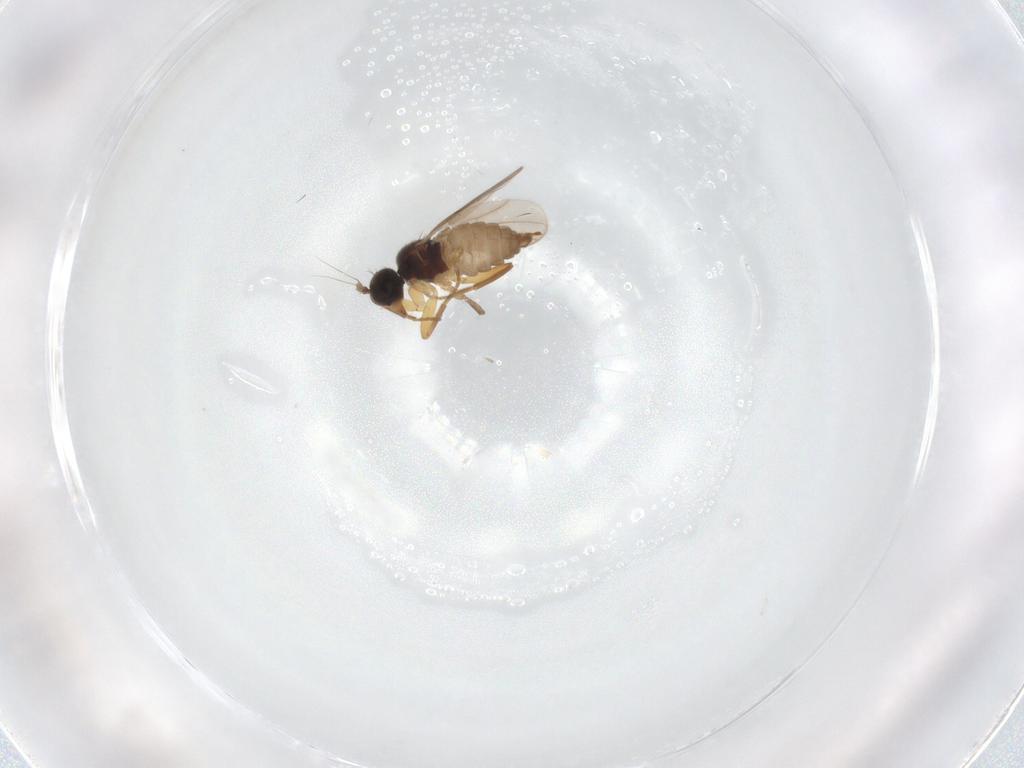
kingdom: Animalia
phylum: Arthropoda
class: Insecta
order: Diptera
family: Hybotidae
